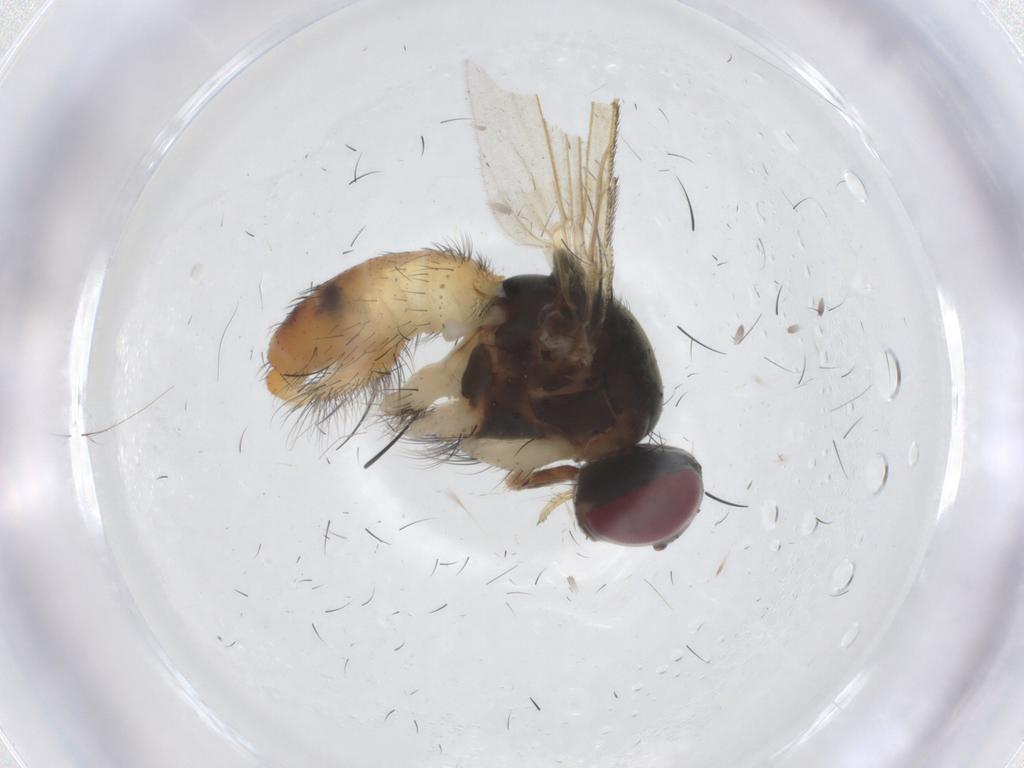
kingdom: Animalia
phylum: Arthropoda
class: Insecta
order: Diptera
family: Muscidae
